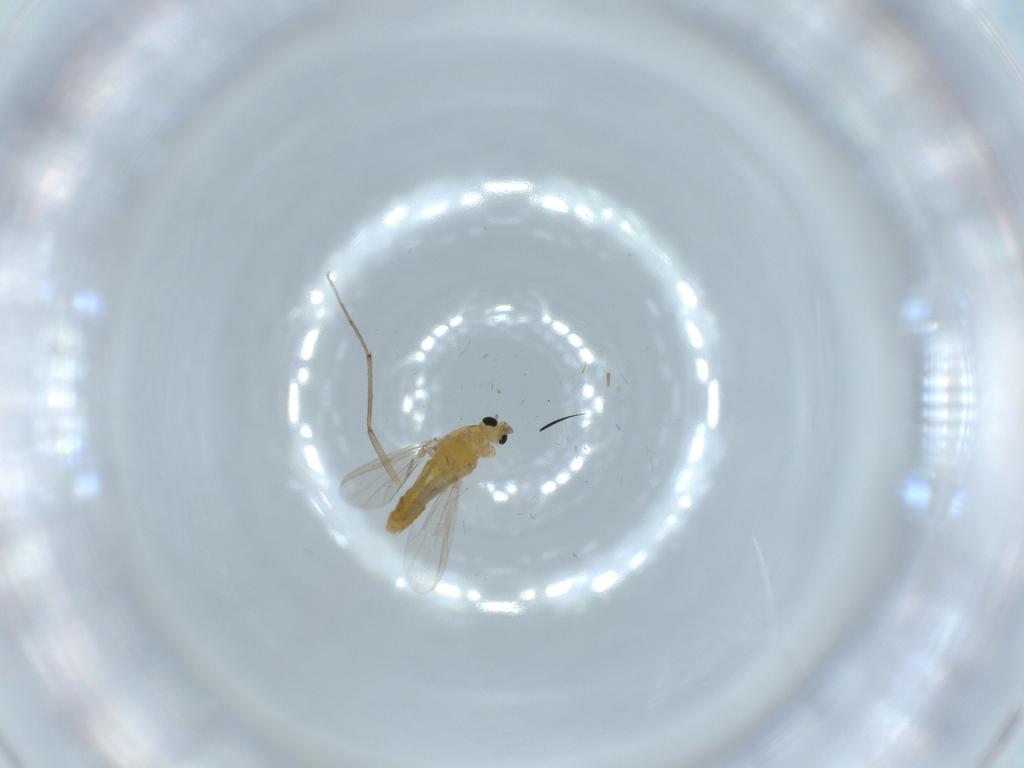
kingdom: Animalia
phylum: Arthropoda
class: Insecta
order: Diptera
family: Chironomidae
